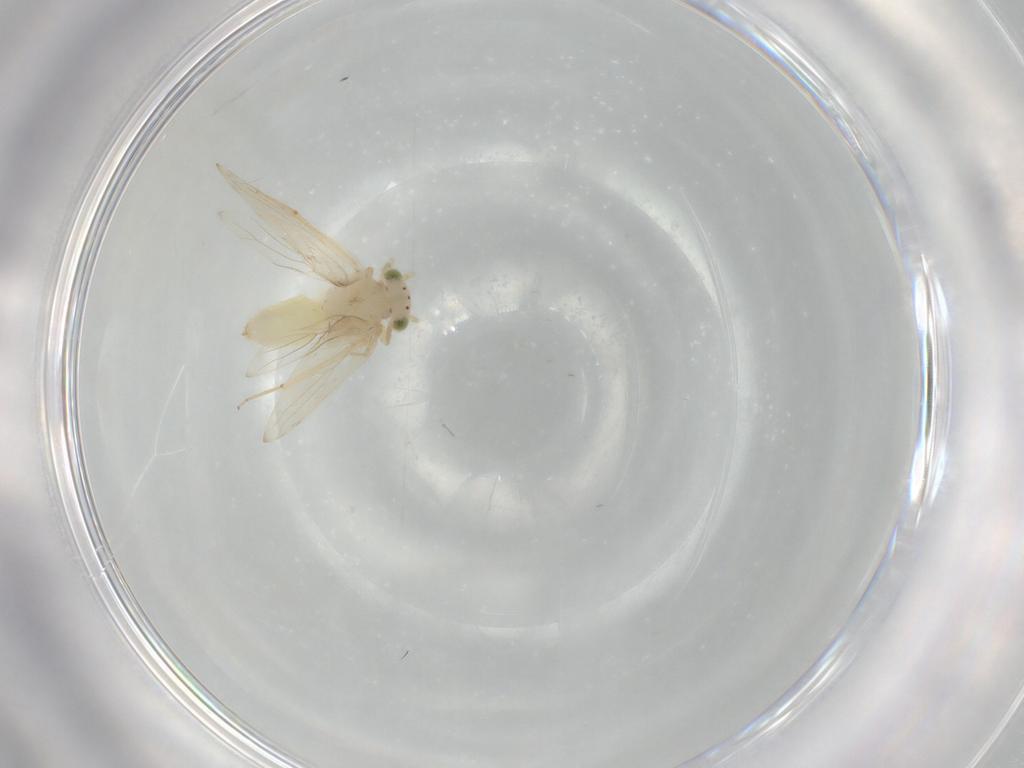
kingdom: Animalia
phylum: Arthropoda
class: Insecta
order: Psocodea
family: Lepidopsocidae
